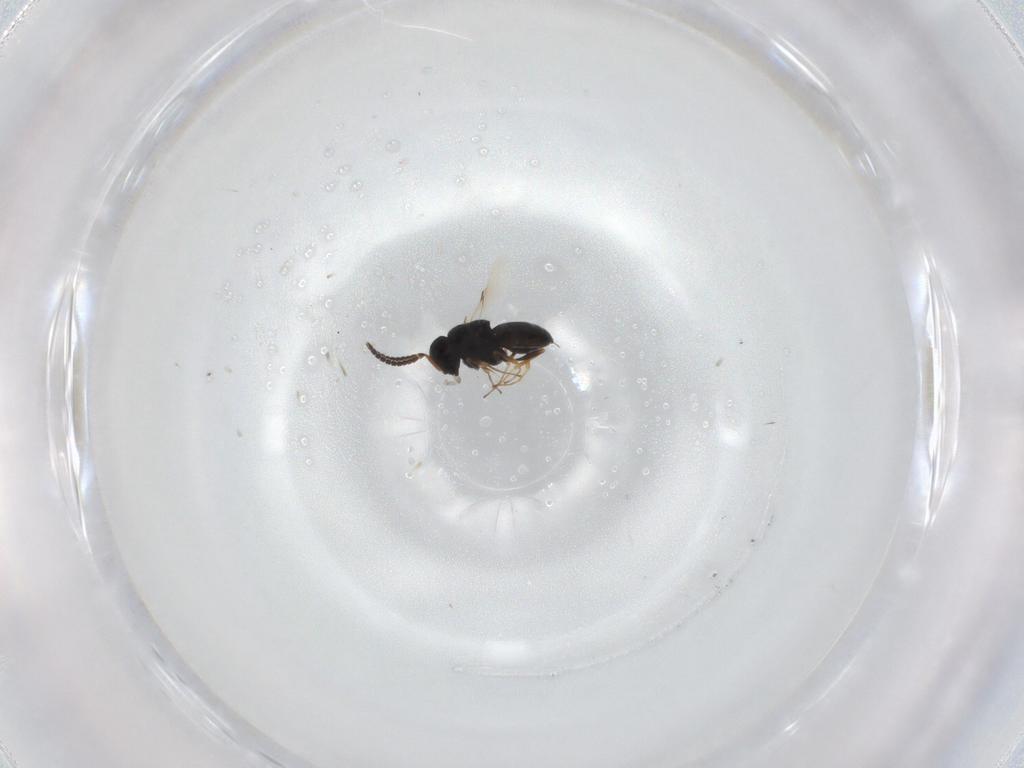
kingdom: Animalia
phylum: Arthropoda
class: Insecta
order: Hymenoptera
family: Scelionidae
